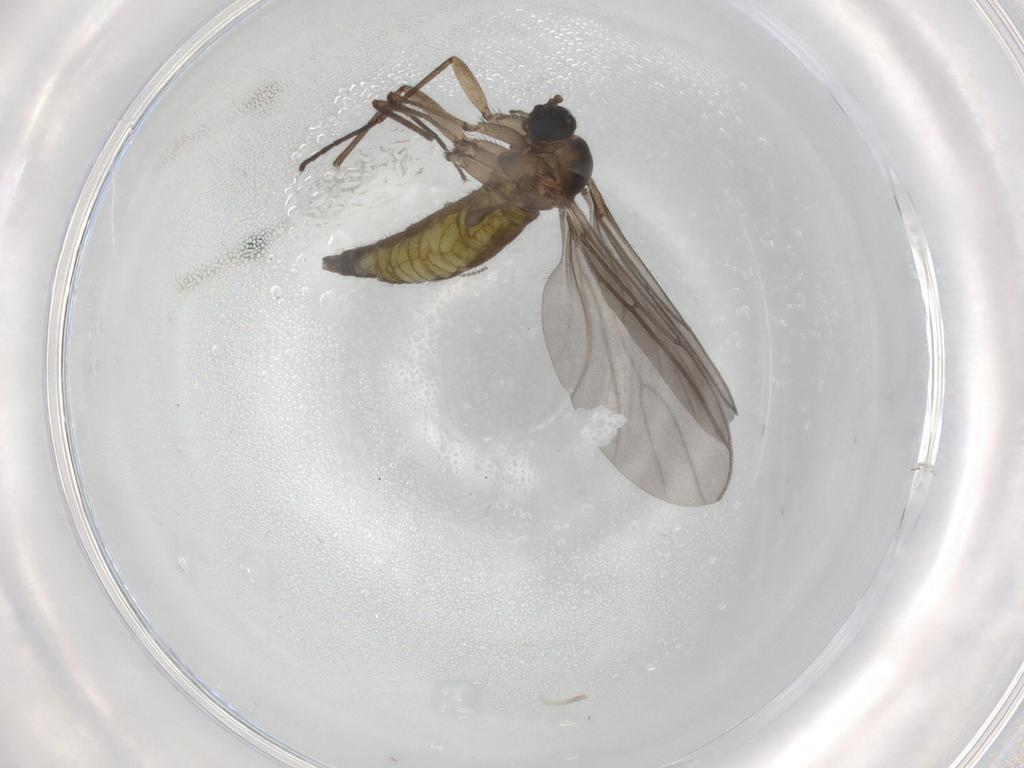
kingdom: Animalia
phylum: Arthropoda
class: Insecta
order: Diptera
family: Sciaridae
